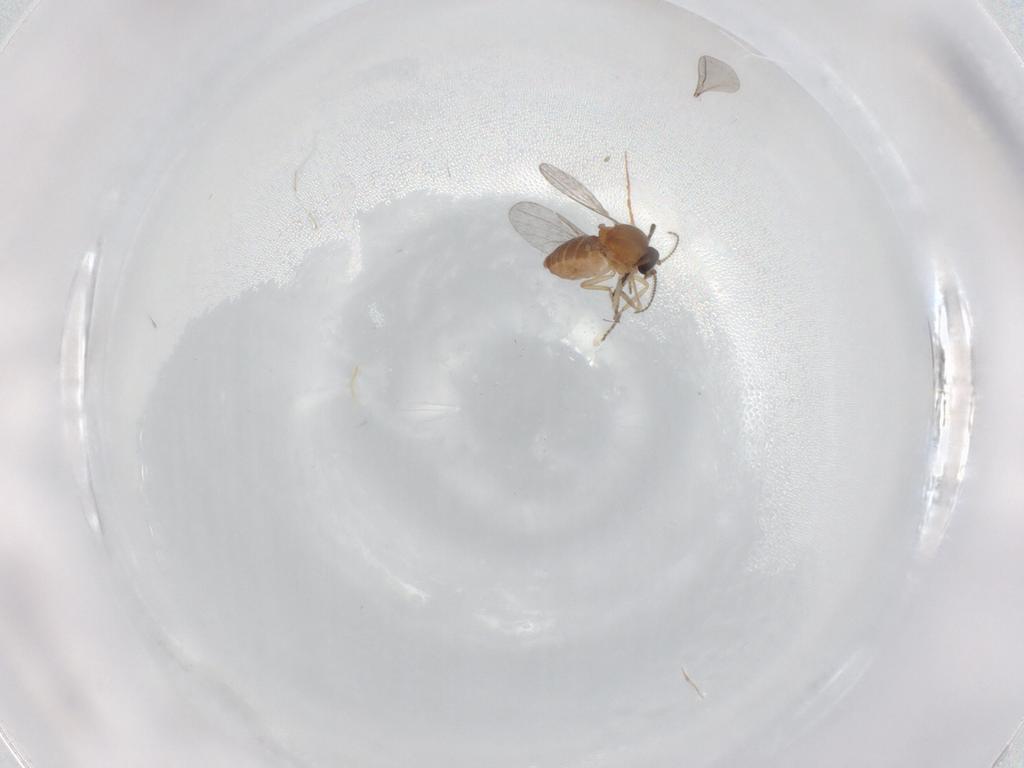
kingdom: Animalia
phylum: Arthropoda
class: Insecta
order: Diptera
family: Ceratopogonidae
